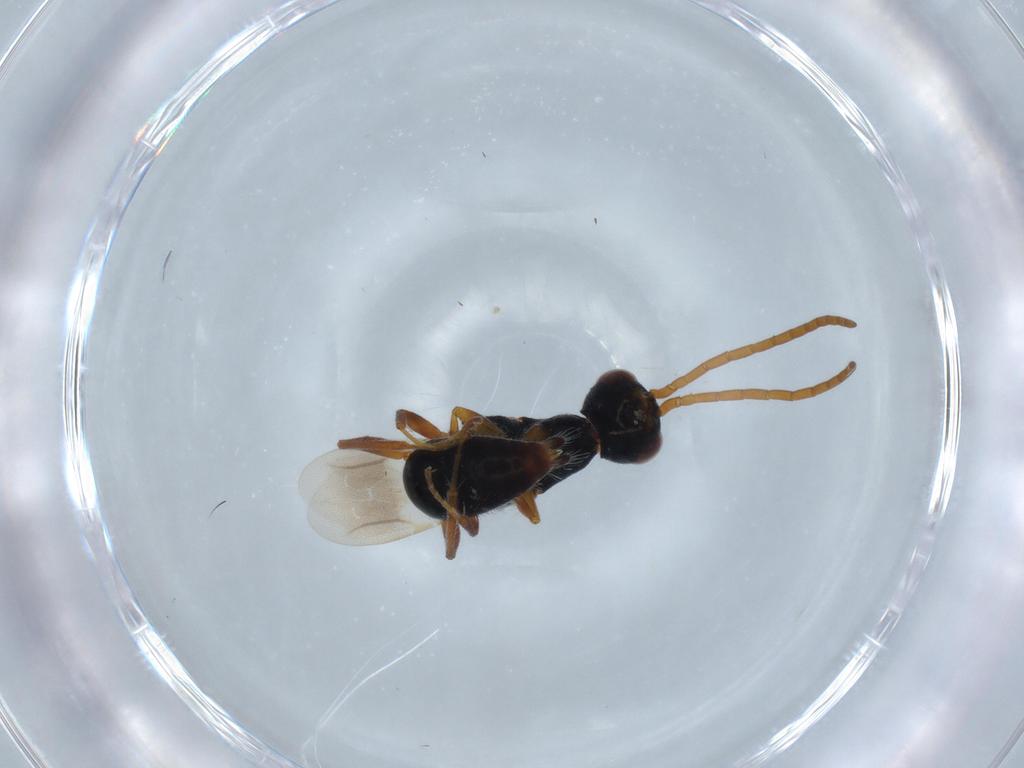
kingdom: Animalia
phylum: Arthropoda
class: Insecta
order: Hymenoptera
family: Bethylidae
